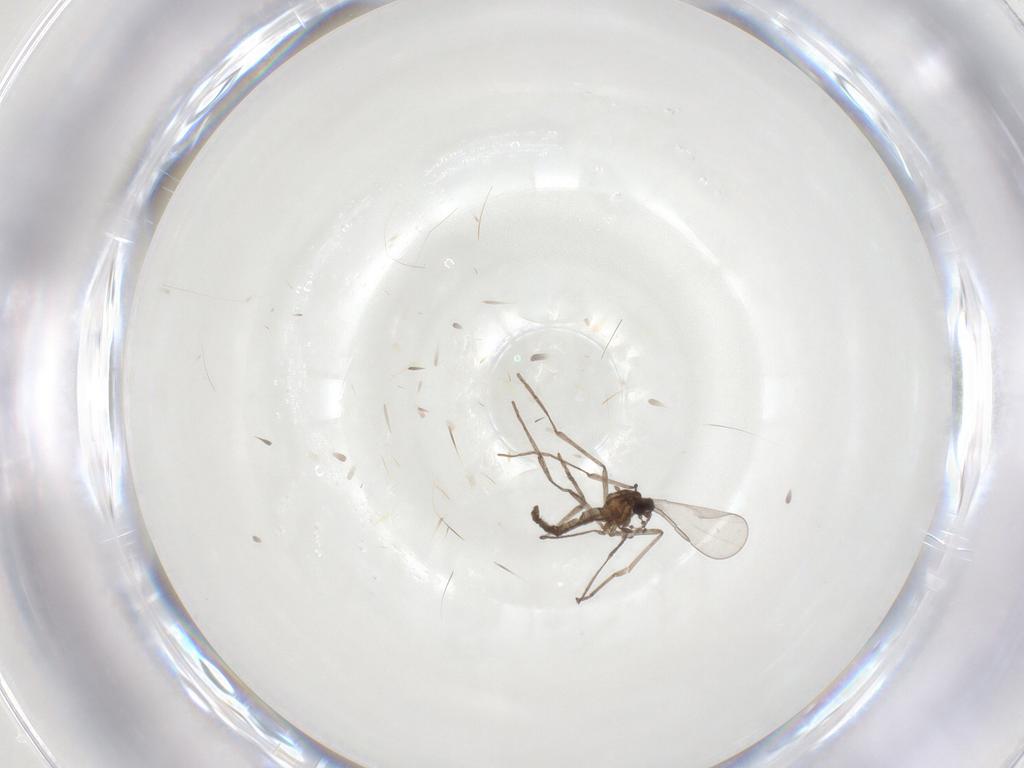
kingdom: Animalia
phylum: Arthropoda
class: Insecta
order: Diptera
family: Cecidomyiidae
